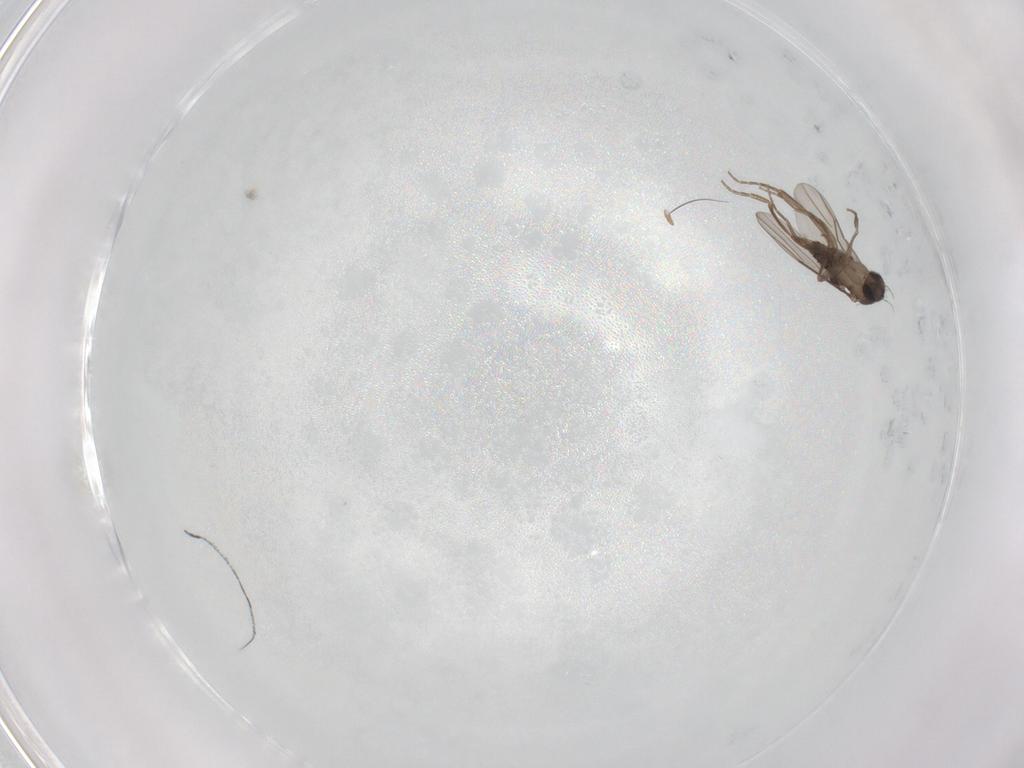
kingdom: Animalia
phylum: Arthropoda
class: Insecta
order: Diptera
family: Phoridae
